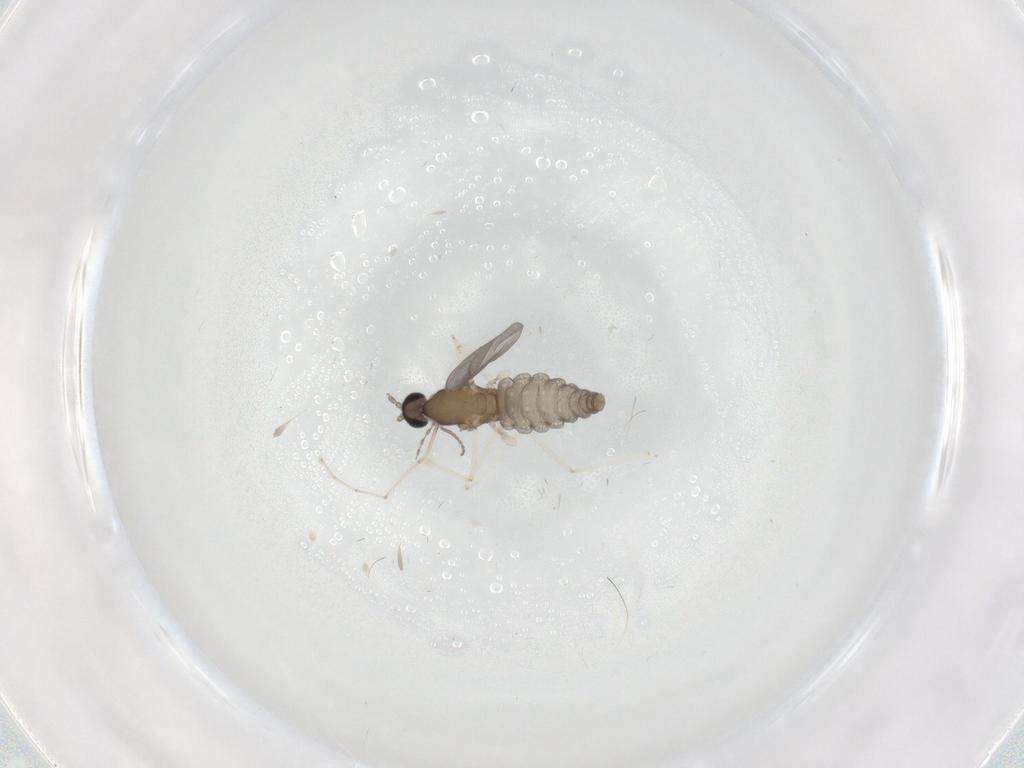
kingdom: Animalia
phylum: Arthropoda
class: Insecta
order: Diptera
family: Cecidomyiidae
